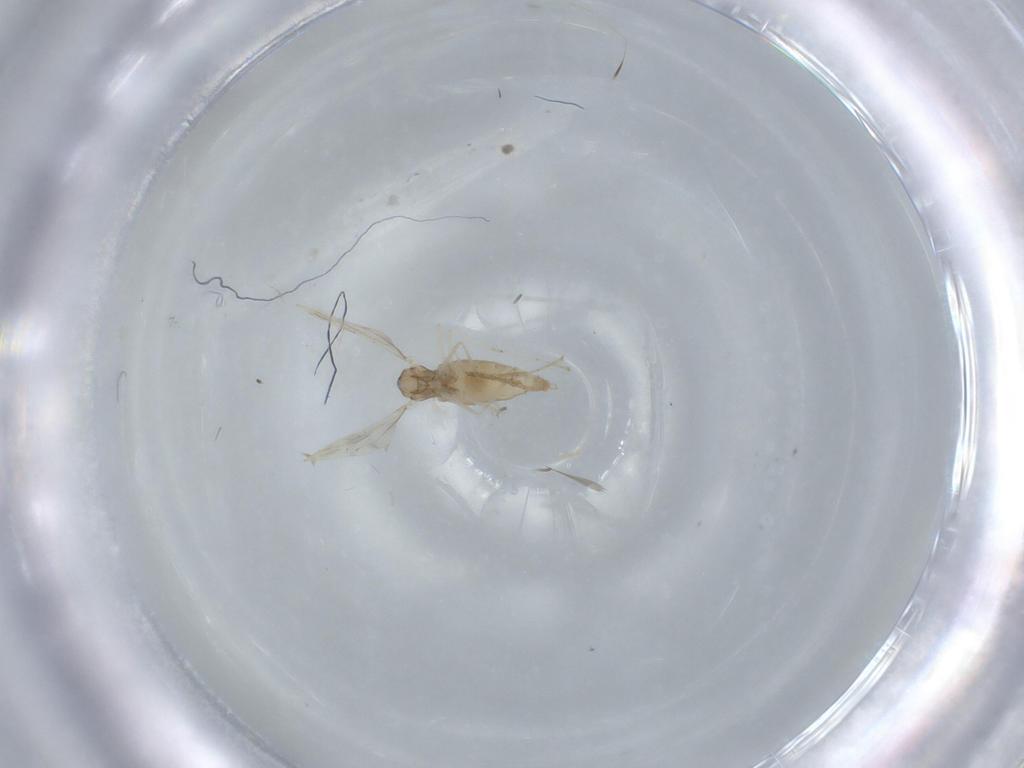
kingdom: Animalia
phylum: Arthropoda
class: Insecta
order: Diptera
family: Cecidomyiidae
